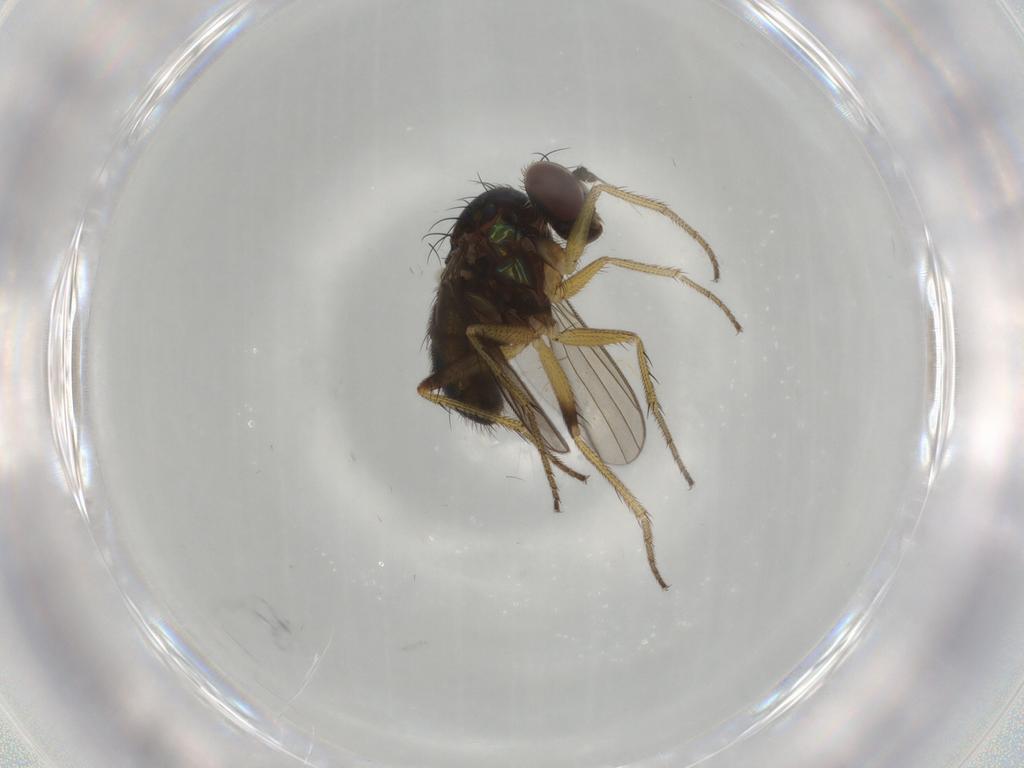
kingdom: Animalia
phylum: Arthropoda
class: Insecta
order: Diptera
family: Dolichopodidae
